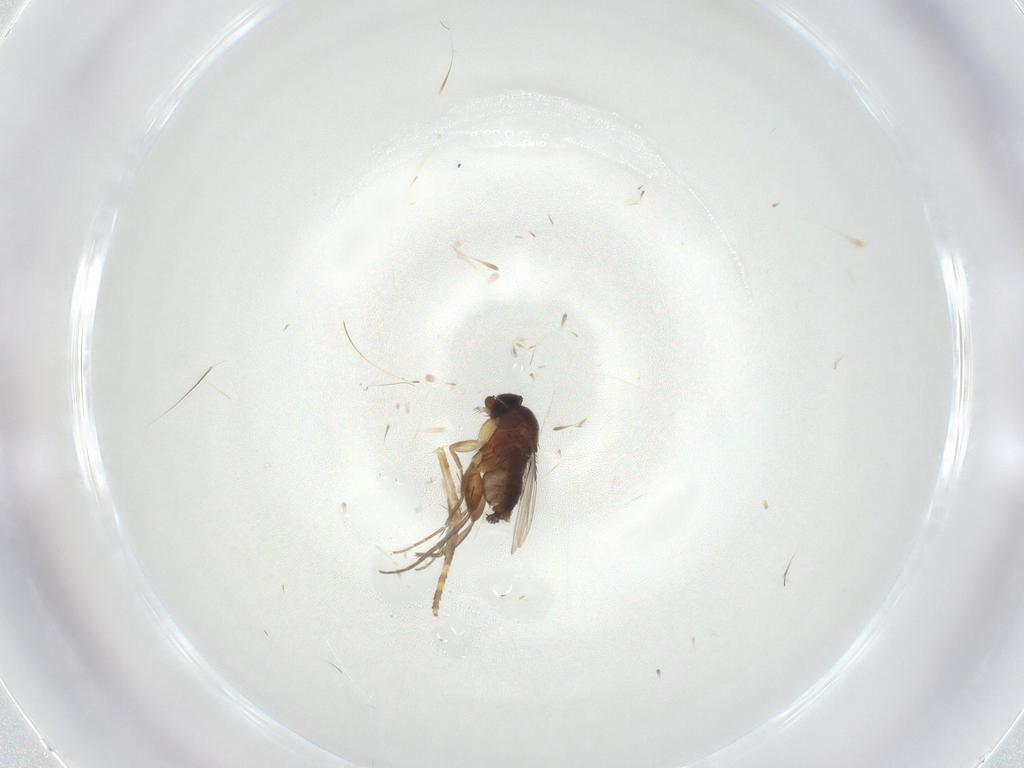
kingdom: Animalia
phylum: Arthropoda
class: Insecta
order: Diptera
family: Phoridae
